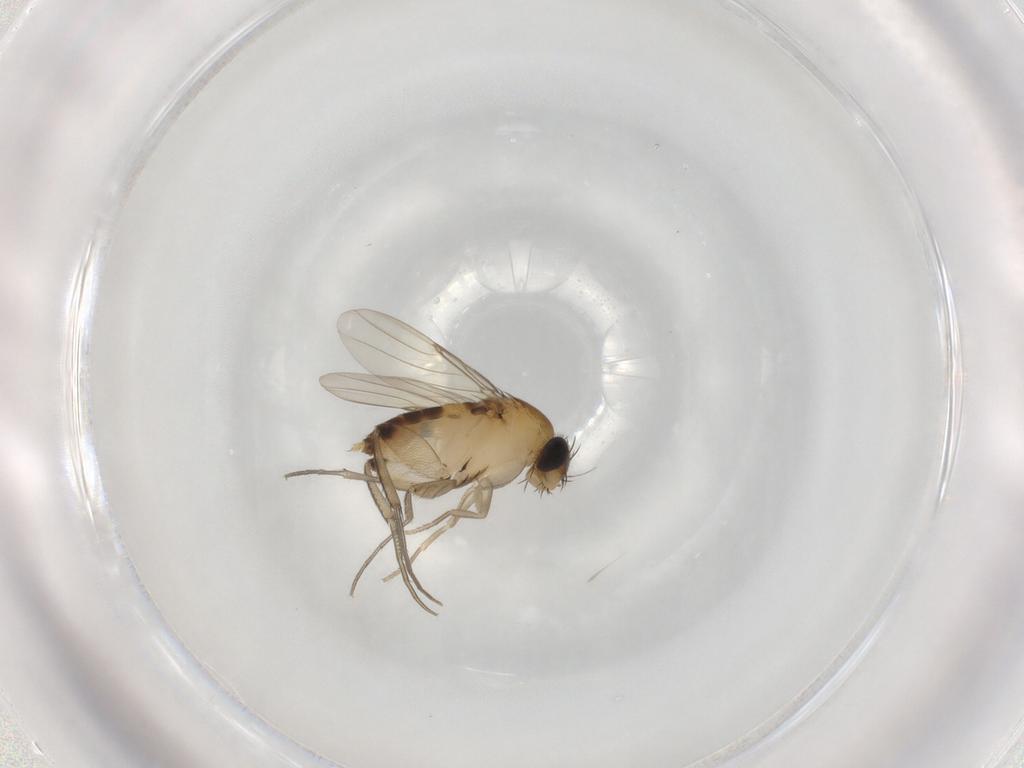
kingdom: Animalia
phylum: Arthropoda
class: Insecta
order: Diptera
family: Phoridae
